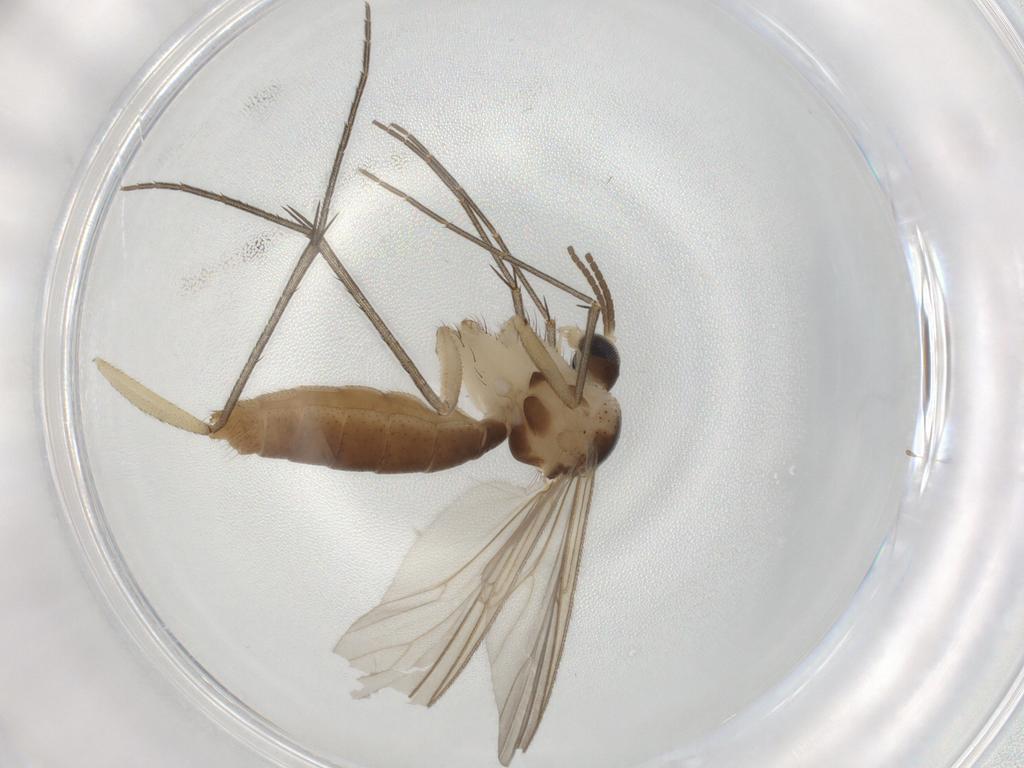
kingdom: Animalia
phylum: Arthropoda
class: Insecta
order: Diptera
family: Mycetophilidae
